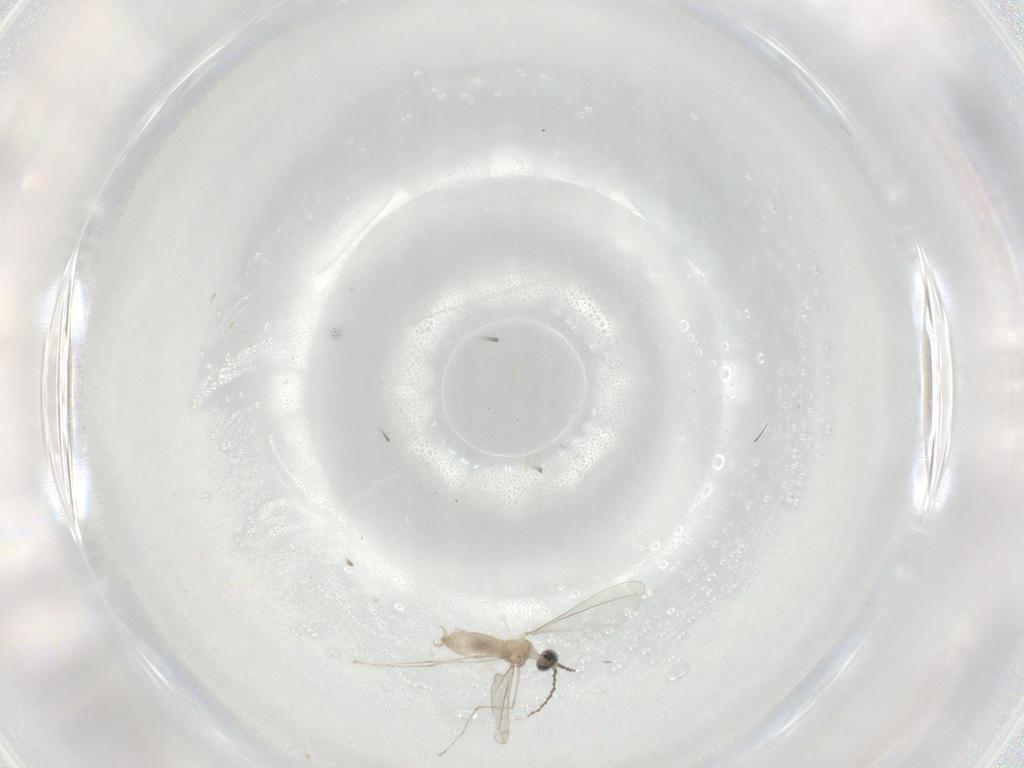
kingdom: Animalia
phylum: Arthropoda
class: Insecta
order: Diptera
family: Cecidomyiidae
